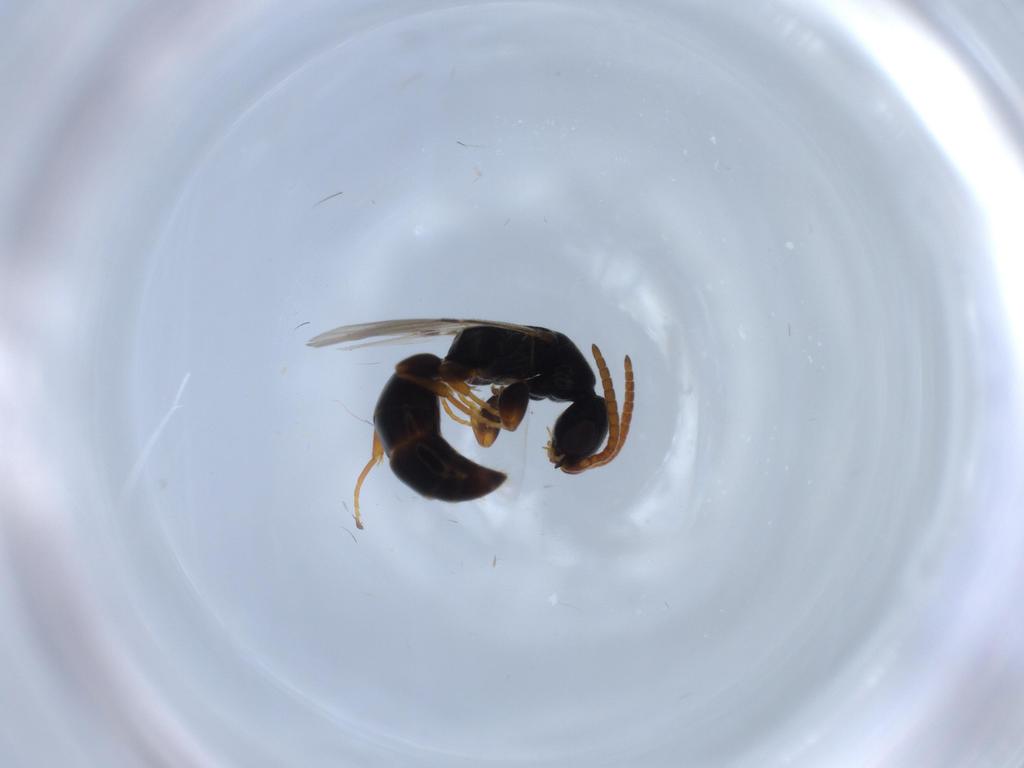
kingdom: Animalia
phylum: Arthropoda
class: Insecta
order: Hymenoptera
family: Bethylidae
